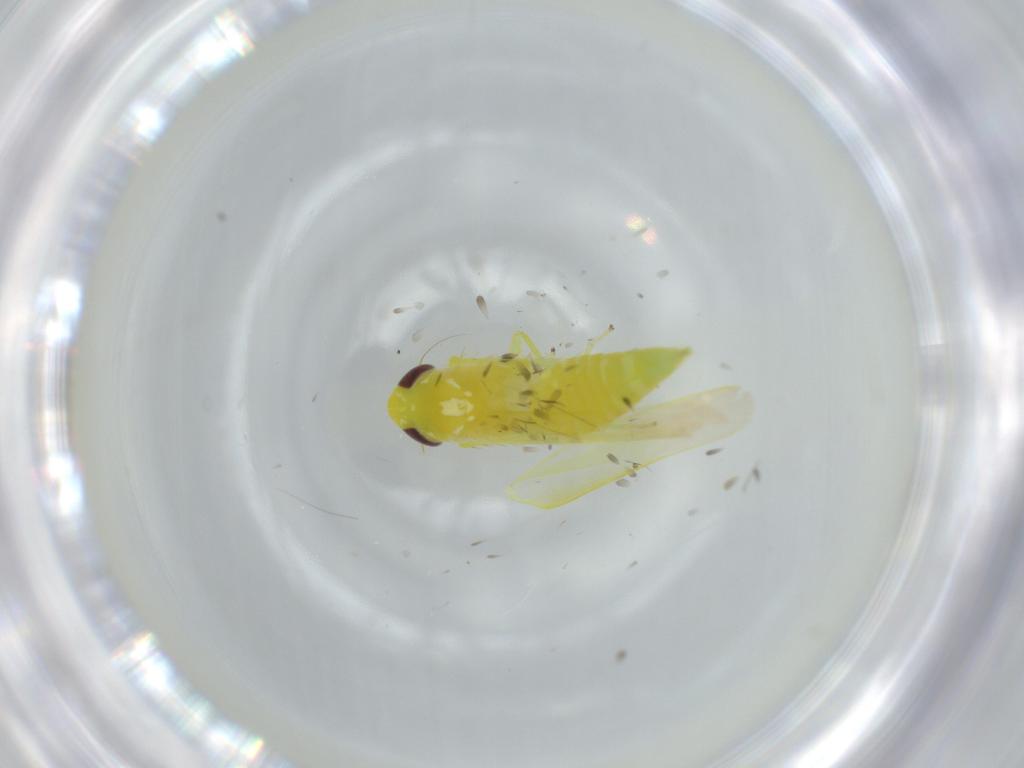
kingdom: Animalia
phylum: Arthropoda
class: Insecta
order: Hemiptera
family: Cicadellidae
